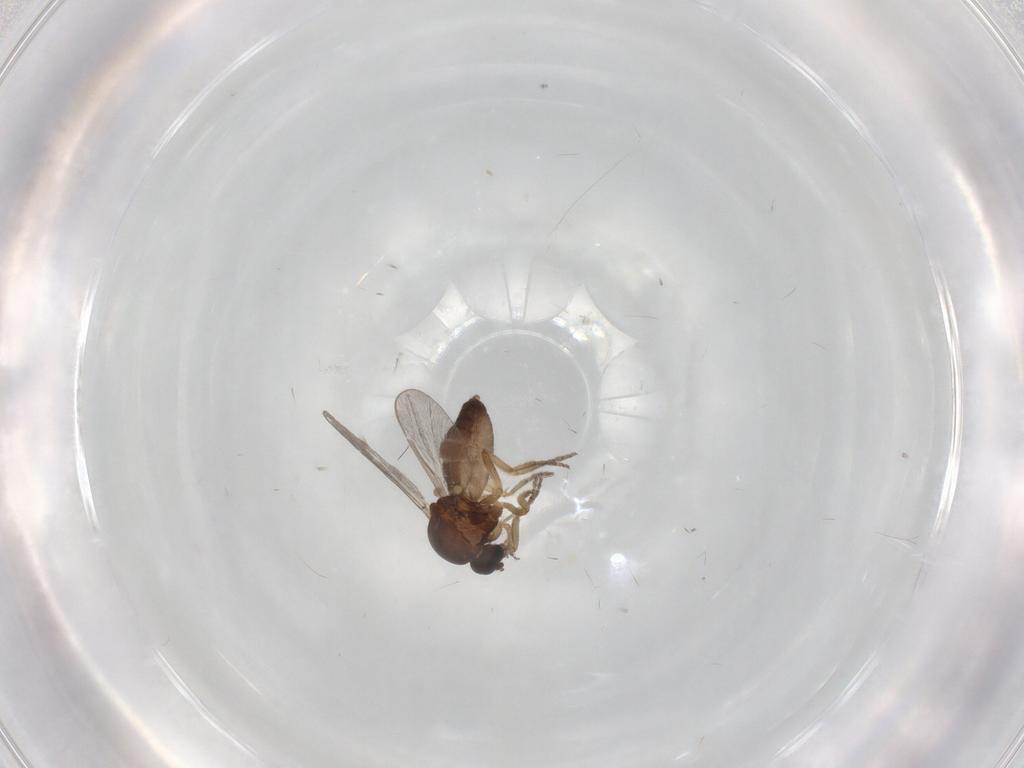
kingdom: Animalia
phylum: Arthropoda
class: Insecta
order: Diptera
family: Ceratopogonidae
